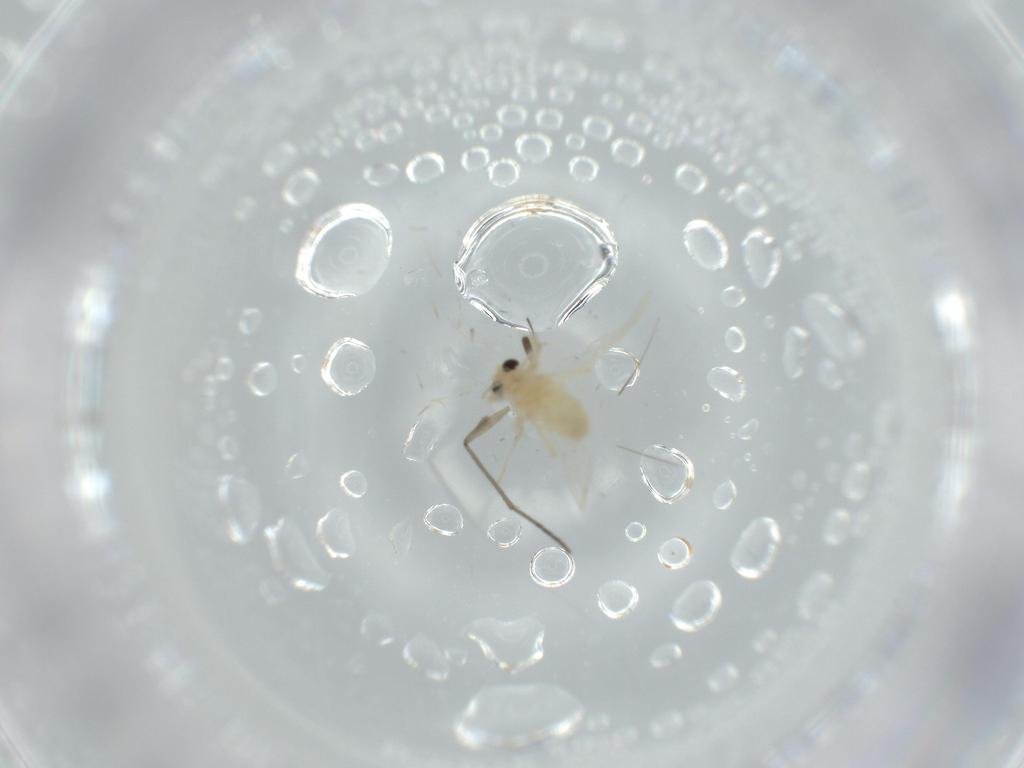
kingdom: Animalia
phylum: Arthropoda
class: Insecta
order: Diptera
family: Chironomidae
